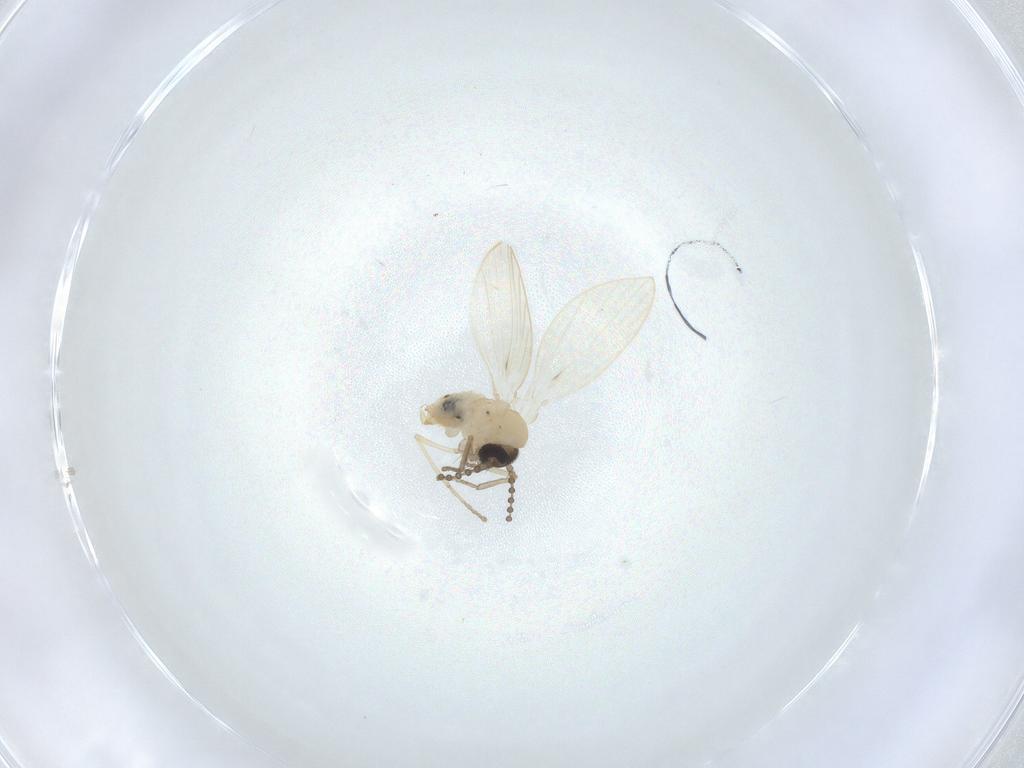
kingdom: Animalia
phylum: Arthropoda
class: Insecta
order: Diptera
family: Psychodidae
